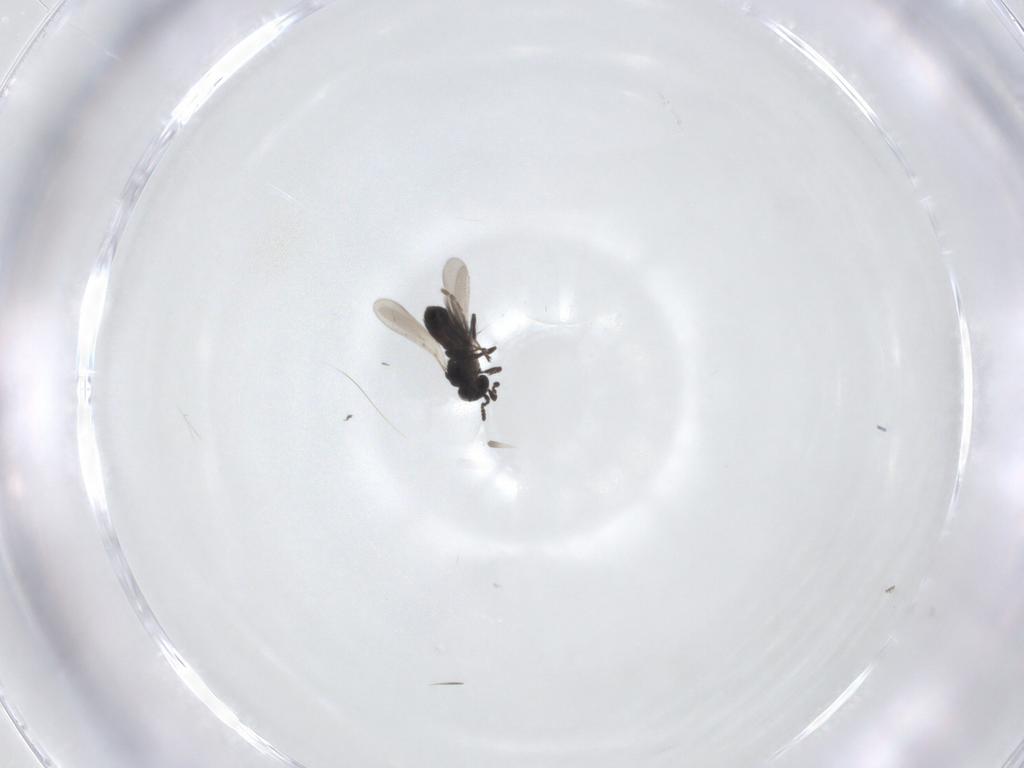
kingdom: Animalia
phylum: Arthropoda
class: Insecta
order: Hymenoptera
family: Platygastridae
